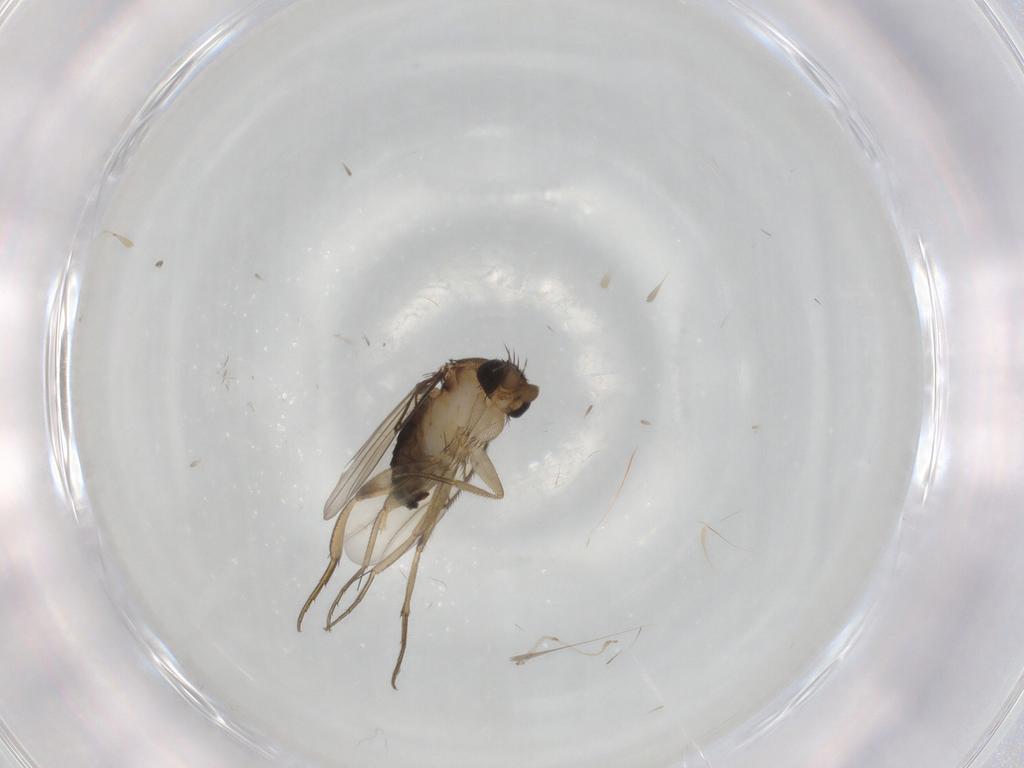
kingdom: Animalia
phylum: Arthropoda
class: Insecta
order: Diptera
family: Phoridae
